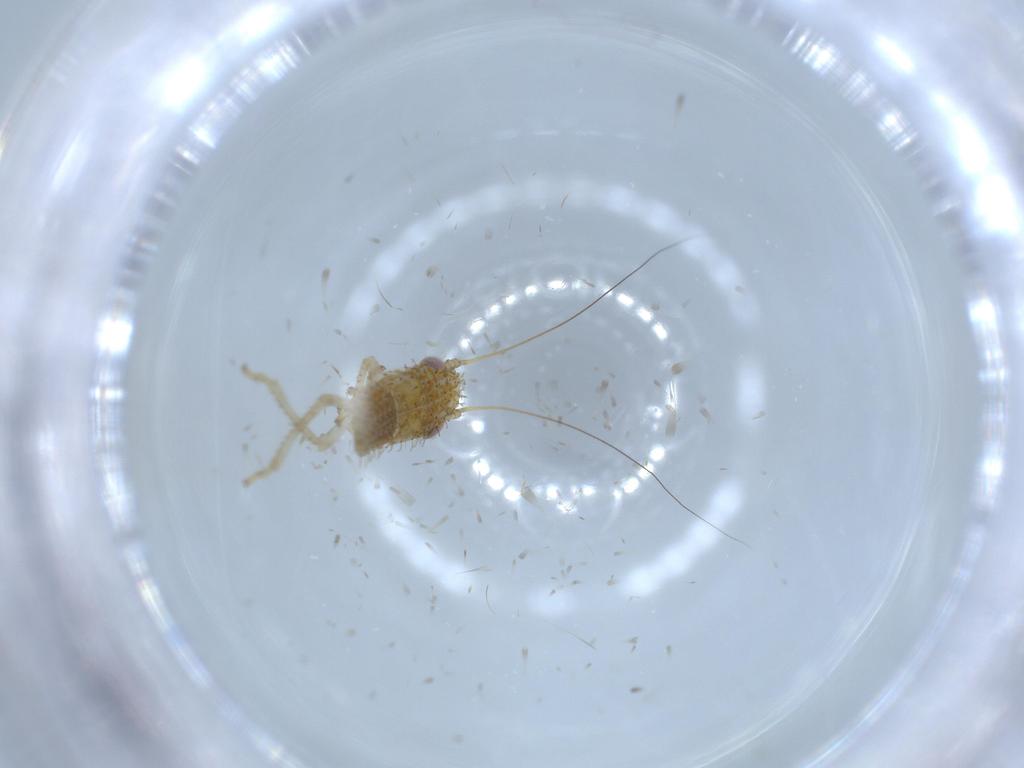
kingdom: Animalia
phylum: Arthropoda
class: Insecta
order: Hemiptera
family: Cicadellidae
